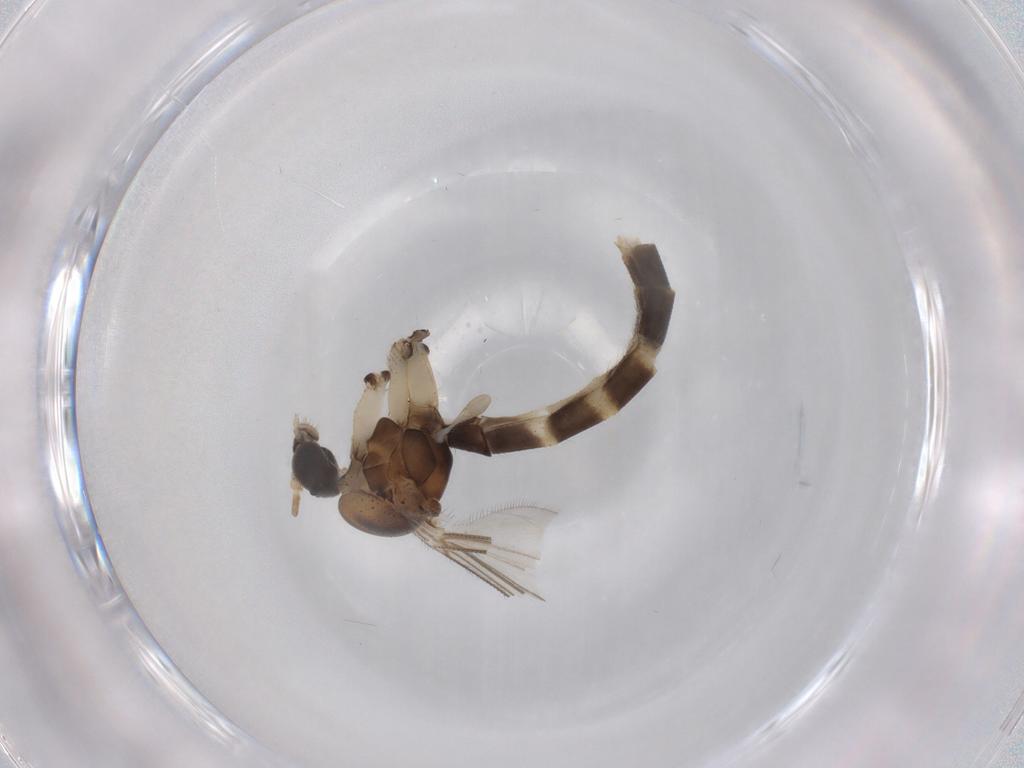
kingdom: Animalia
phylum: Arthropoda
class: Insecta
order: Diptera
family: Mycetophilidae
